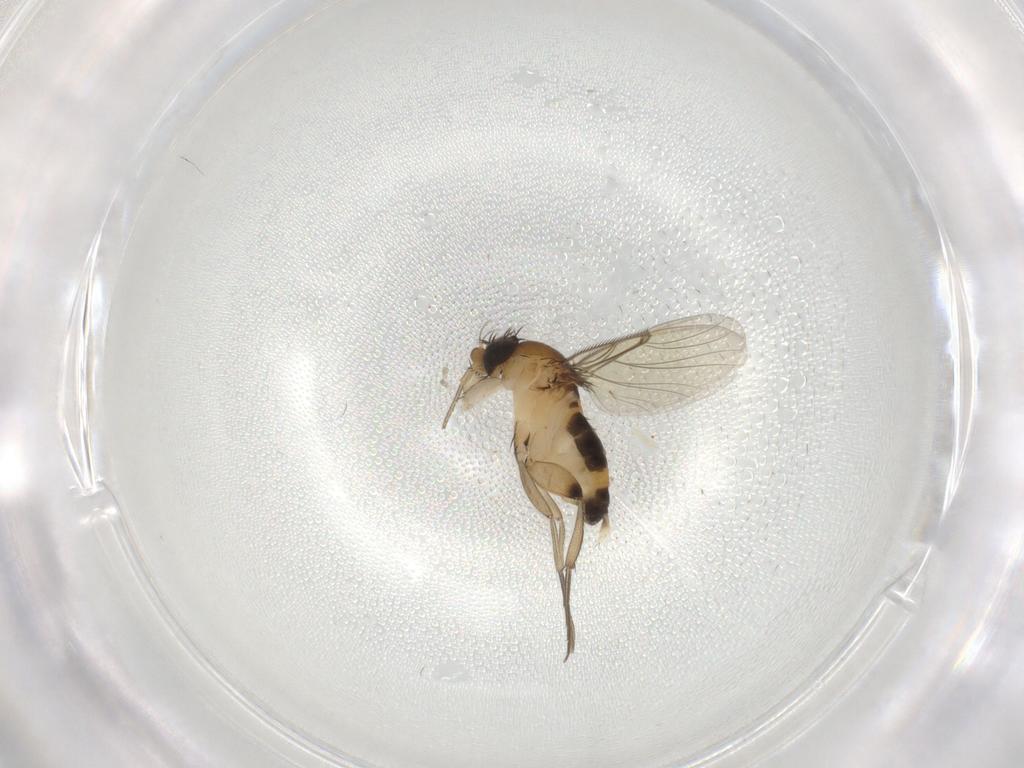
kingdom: Animalia
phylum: Arthropoda
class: Insecta
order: Diptera
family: Phoridae
